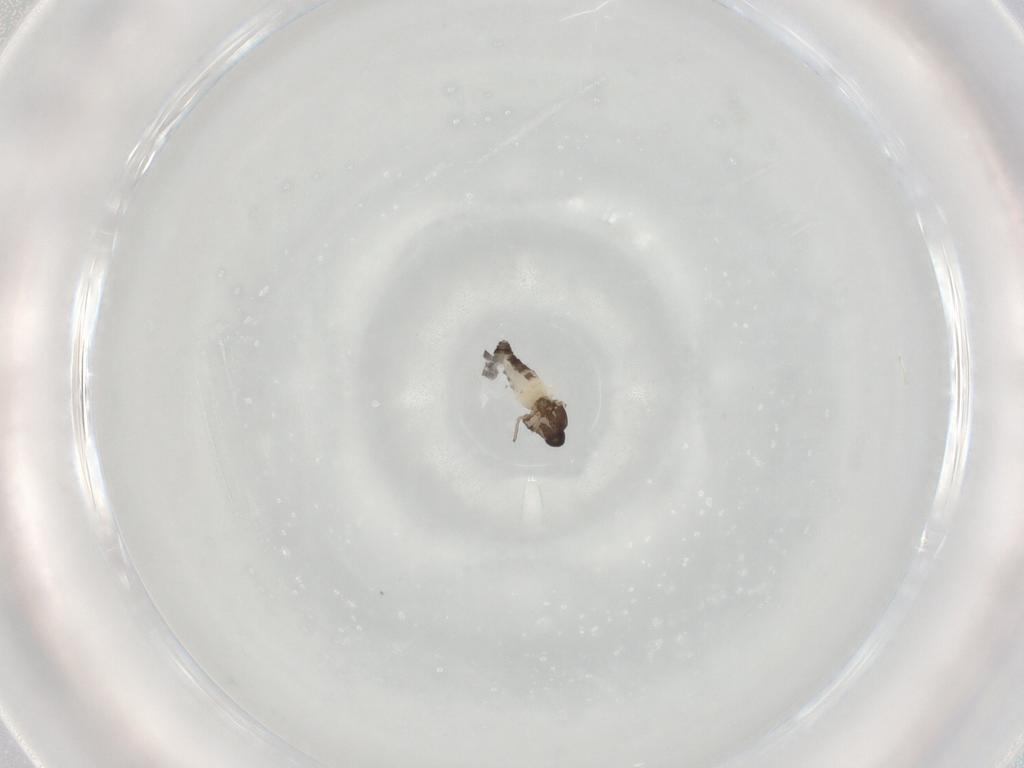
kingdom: Animalia
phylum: Arthropoda
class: Insecta
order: Diptera
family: Ceratopogonidae
